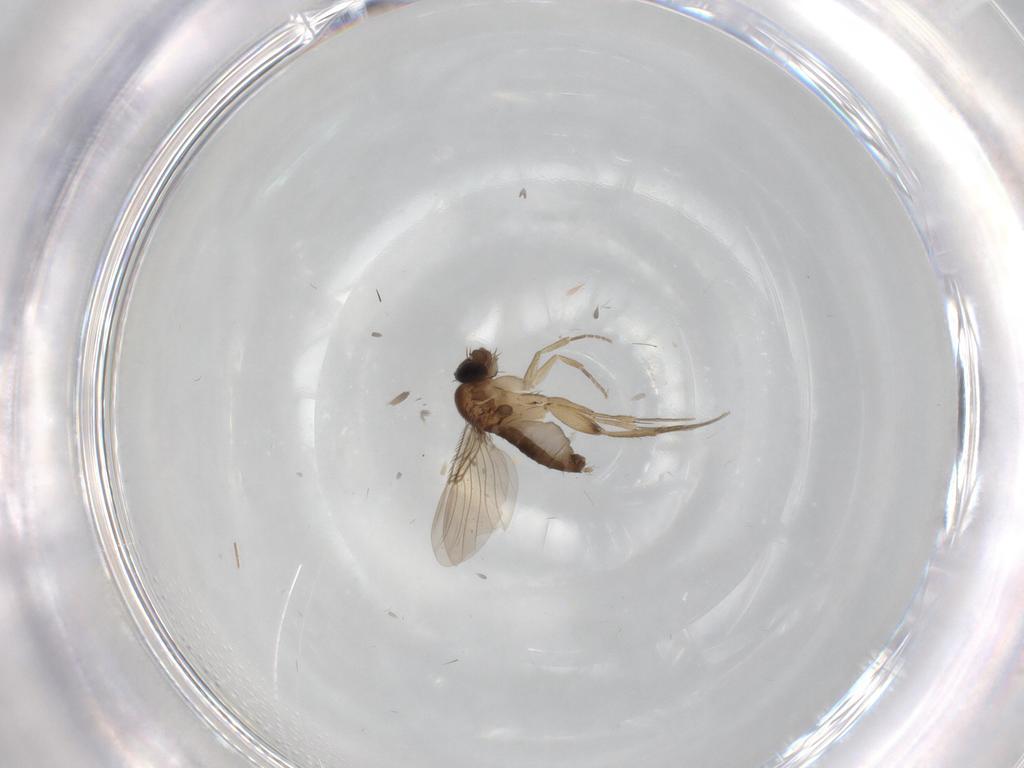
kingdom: Animalia
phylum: Arthropoda
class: Insecta
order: Diptera
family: Phoridae
